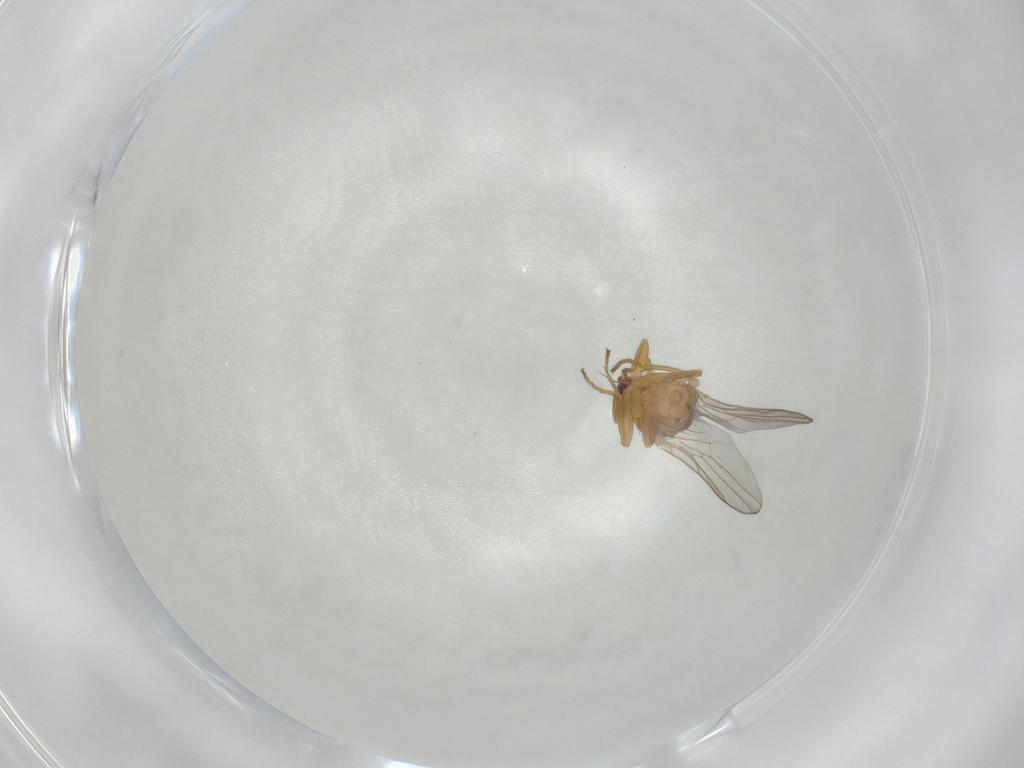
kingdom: Animalia
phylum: Arthropoda
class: Insecta
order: Diptera
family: Chloropidae
